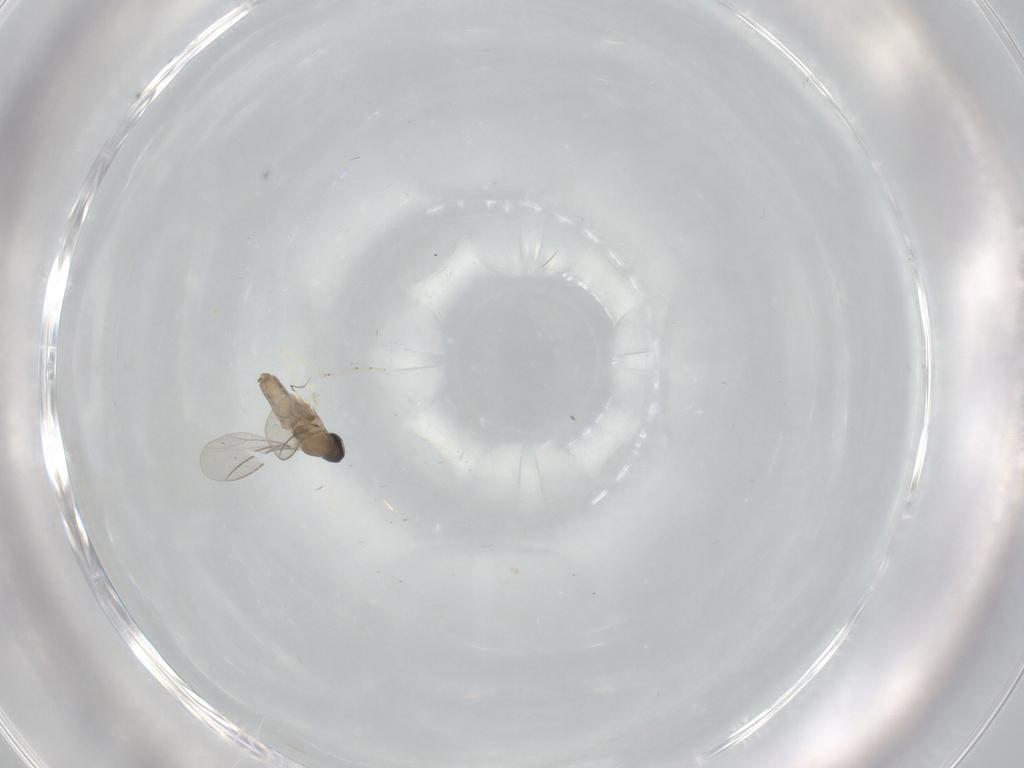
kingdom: Animalia
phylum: Arthropoda
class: Insecta
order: Diptera
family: Cecidomyiidae
